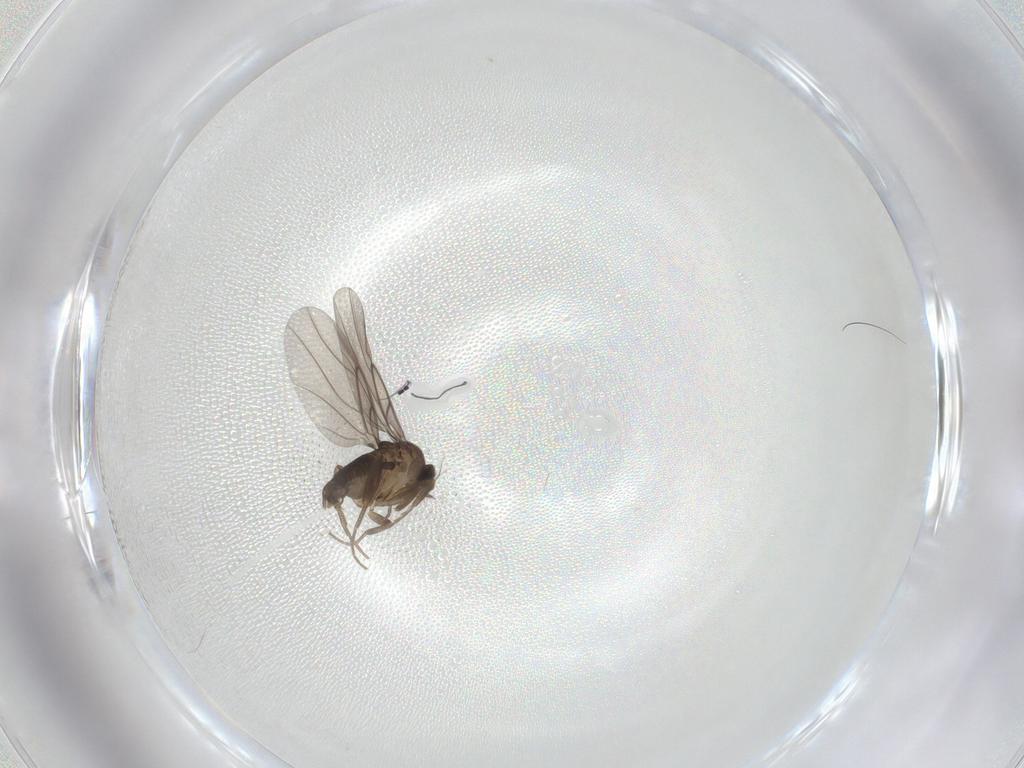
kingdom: Animalia
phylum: Arthropoda
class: Insecta
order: Diptera
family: Phoridae
